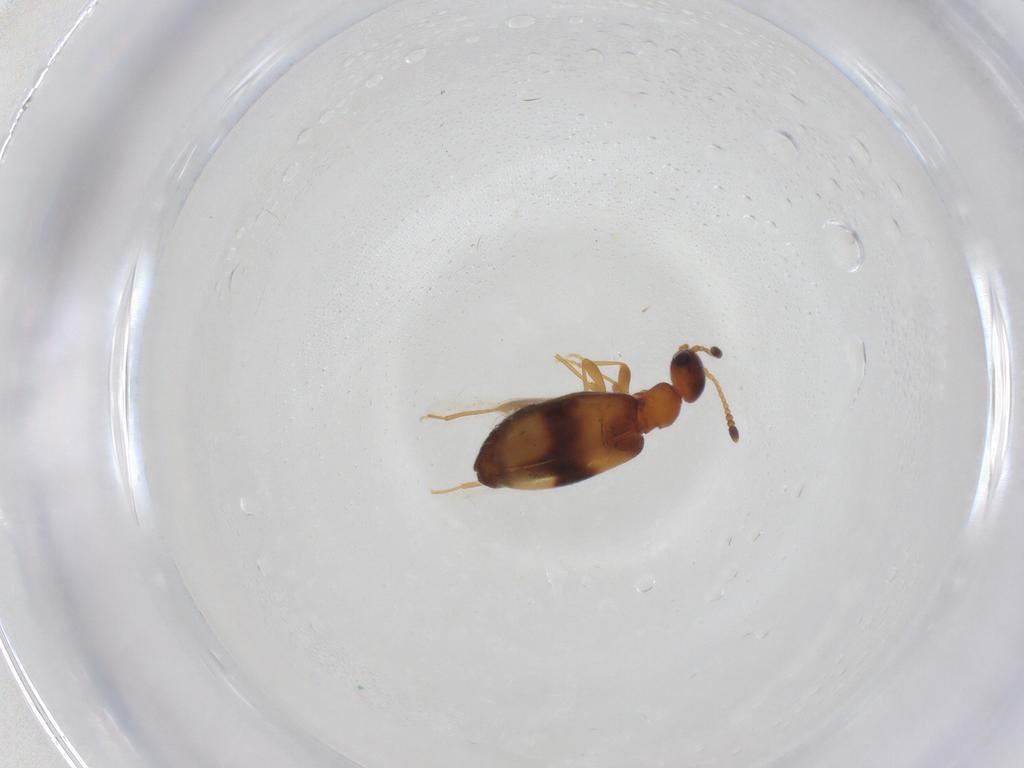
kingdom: Animalia
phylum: Arthropoda
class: Insecta
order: Coleoptera
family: Anthicidae
